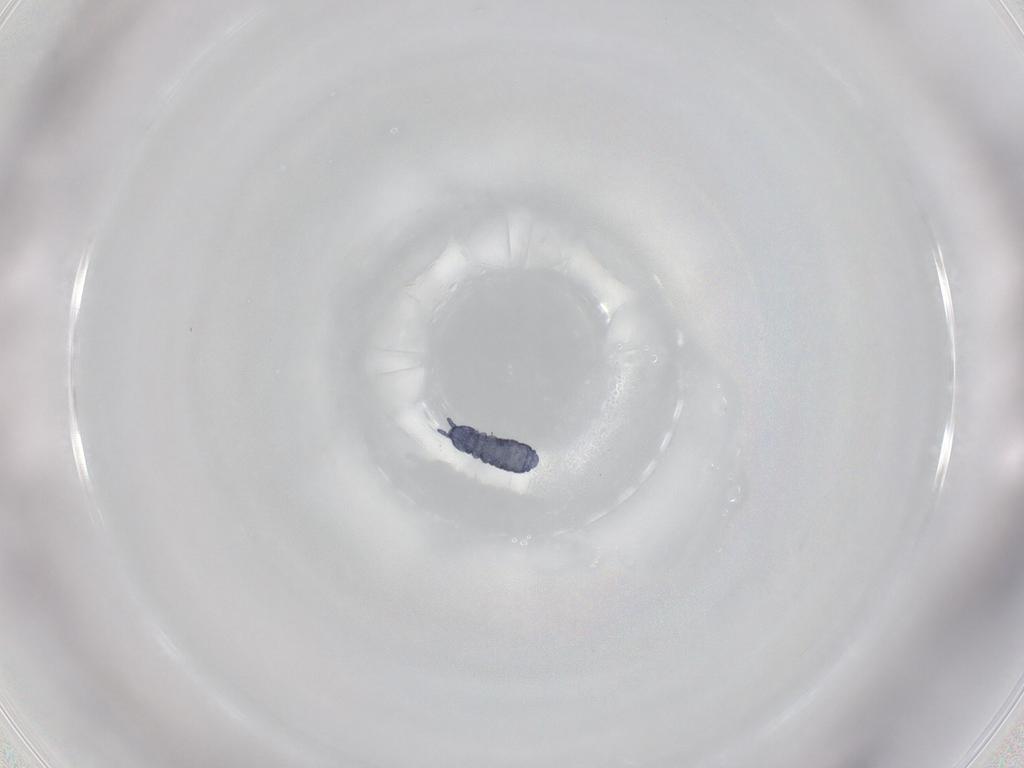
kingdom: Animalia
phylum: Arthropoda
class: Collembola
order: Poduromorpha
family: Hypogastruridae
